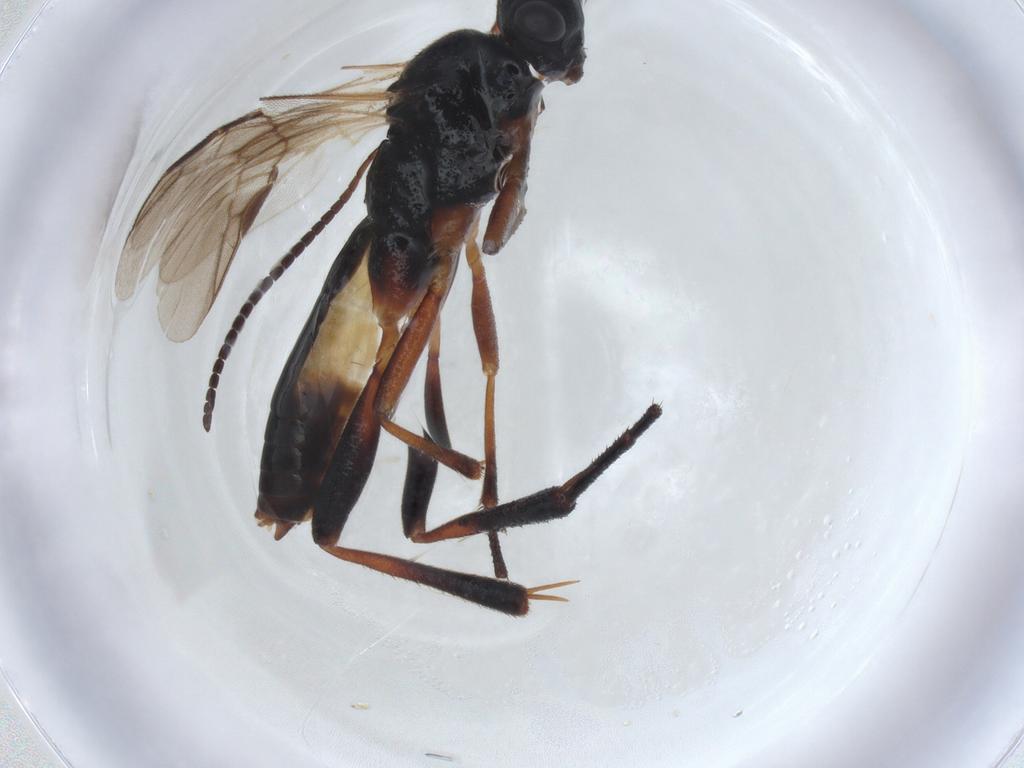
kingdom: Animalia
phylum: Arthropoda
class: Insecta
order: Hymenoptera
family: Braconidae
